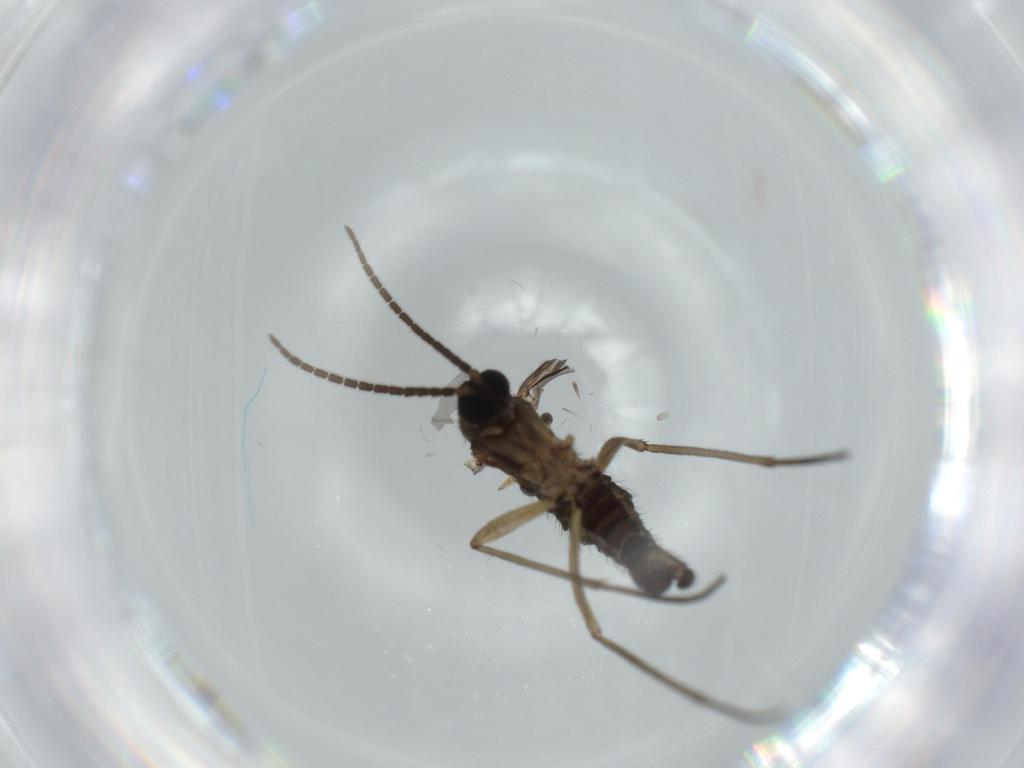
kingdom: Animalia
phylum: Arthropoda
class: Insecta
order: Diptera
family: Sciaridae
